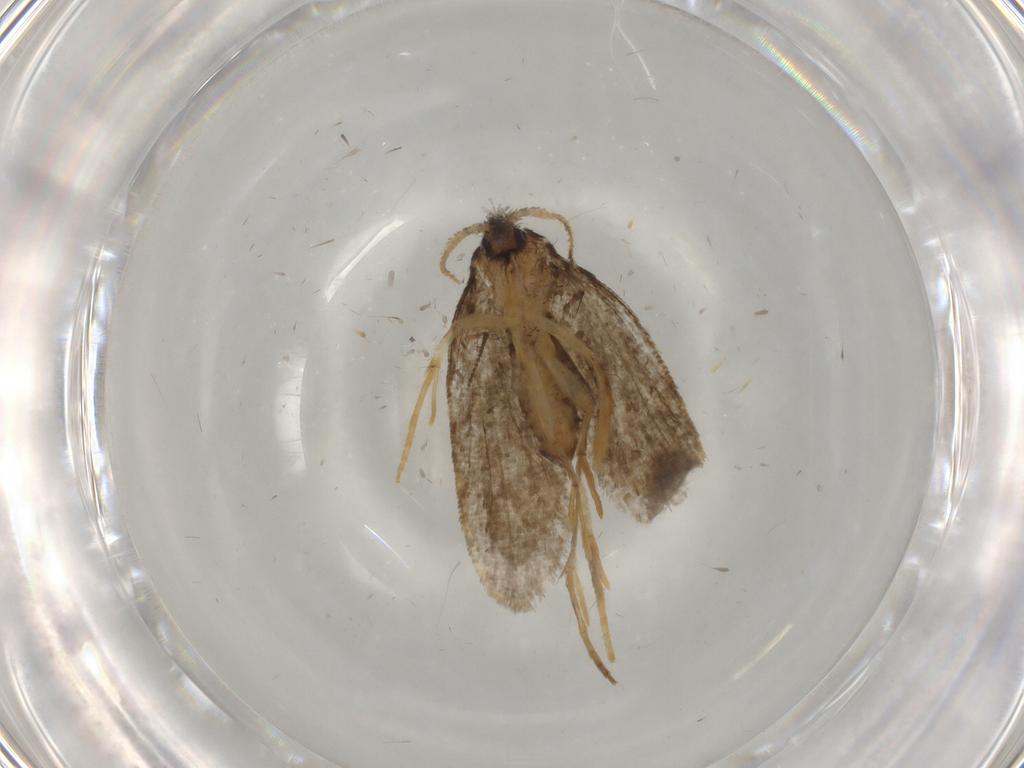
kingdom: Animalia
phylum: Arthropoda
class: Insecta
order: Lepidoptera
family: Psychidae
